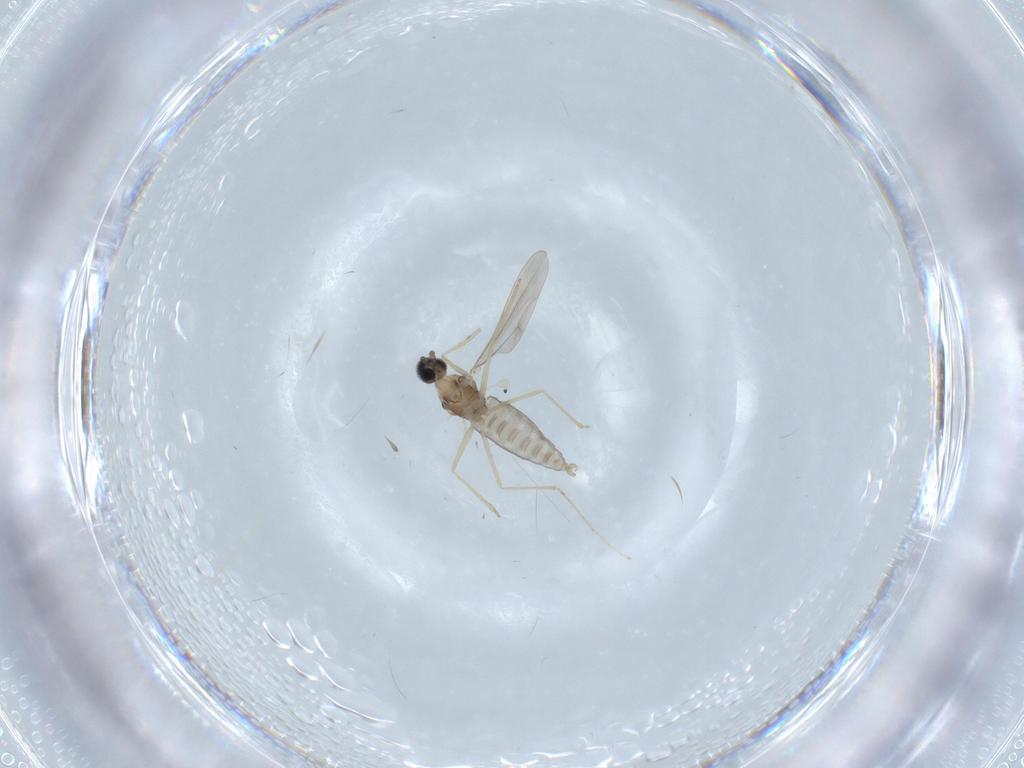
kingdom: Animalia
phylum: Arthropoda
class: Insecta
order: Diptera
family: Cecidomyiidae
